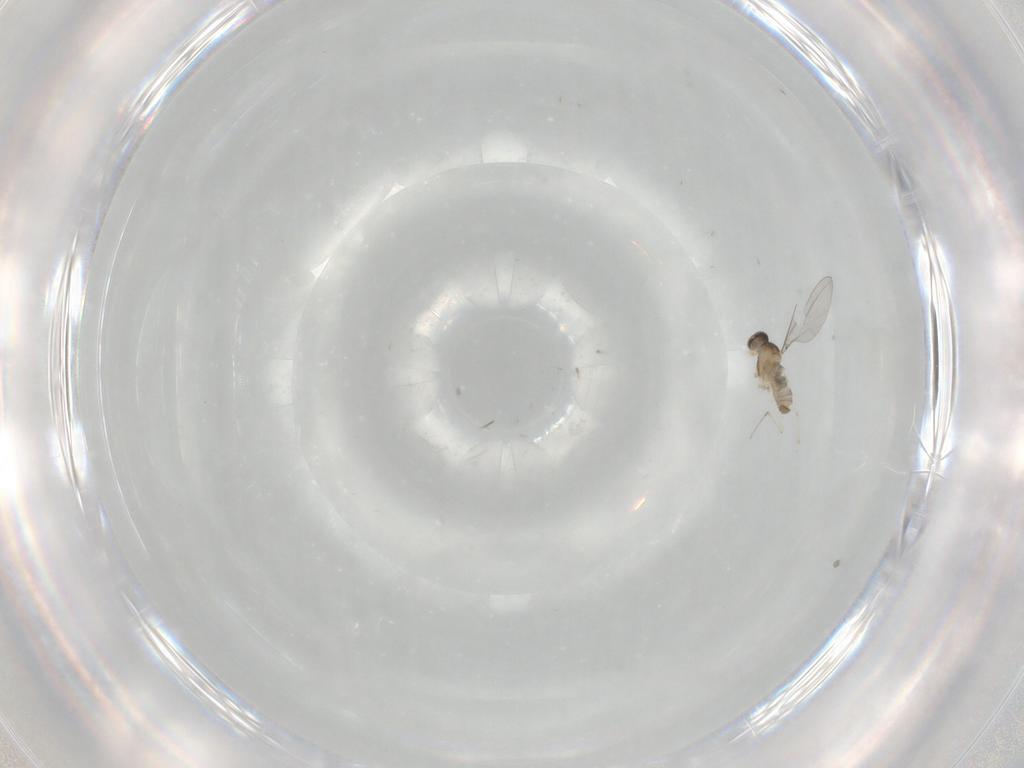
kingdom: Animalia
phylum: Arthropoda
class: Insecta
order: Diptera
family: Cecidomyiidae
